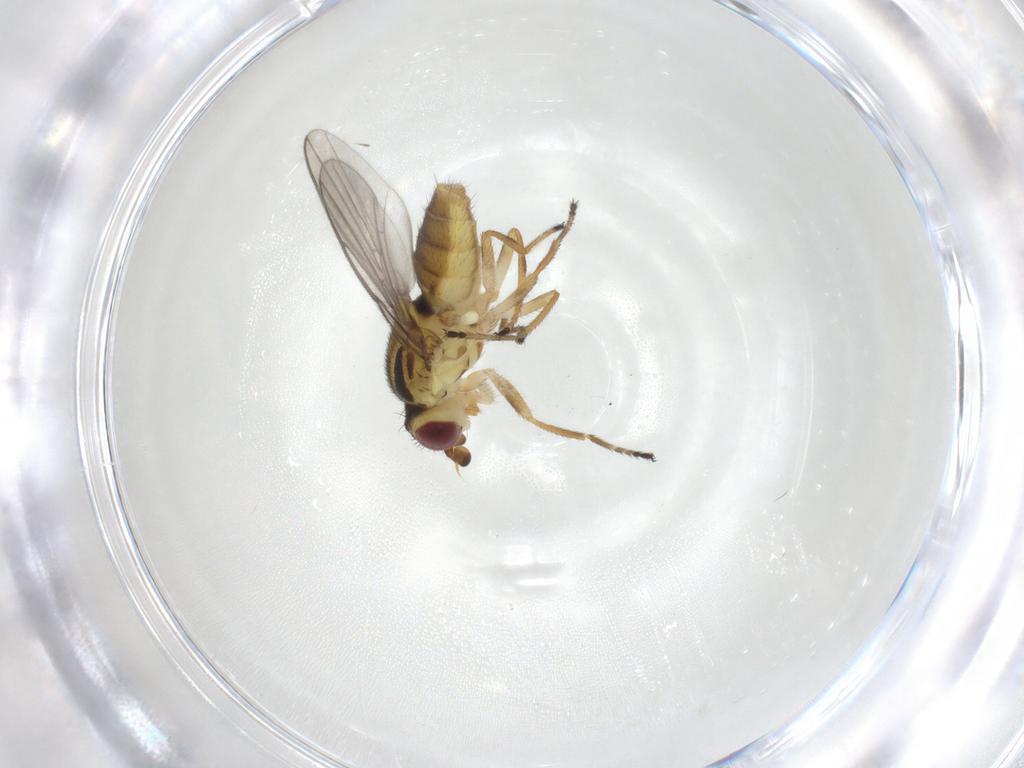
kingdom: Animalia
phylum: Arthropoda
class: Insecta
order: Diptera
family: Chloropidae
